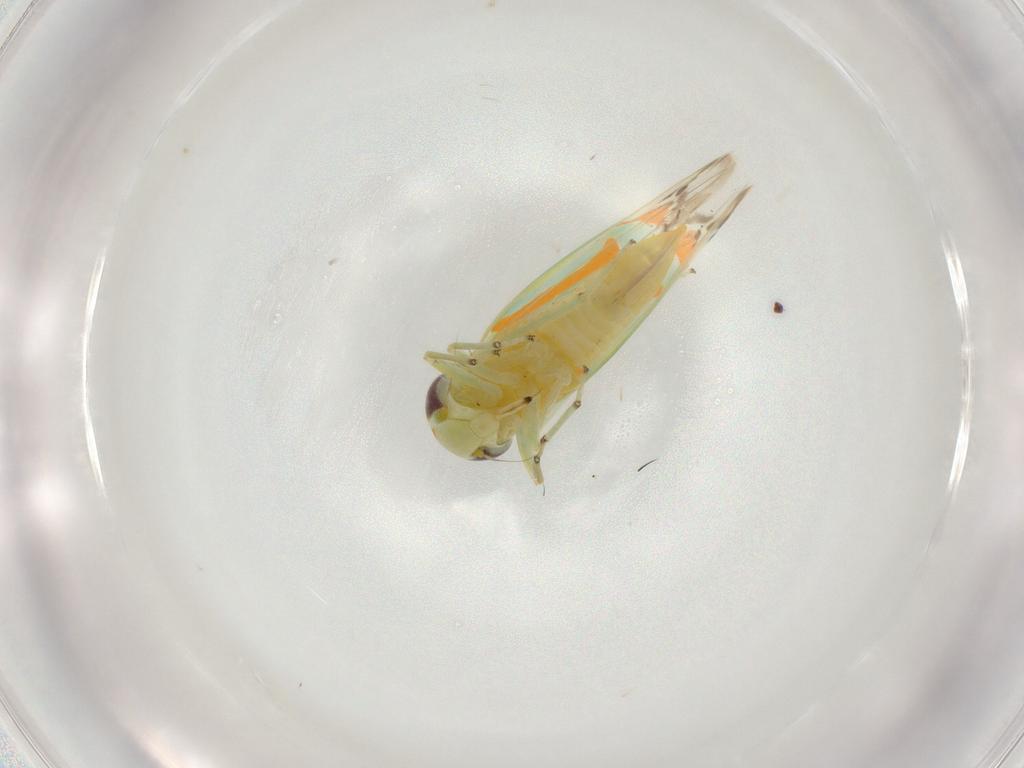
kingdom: Animalia
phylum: Arthropoda
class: Insecta
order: Hemiptera
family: Cicadellidae
